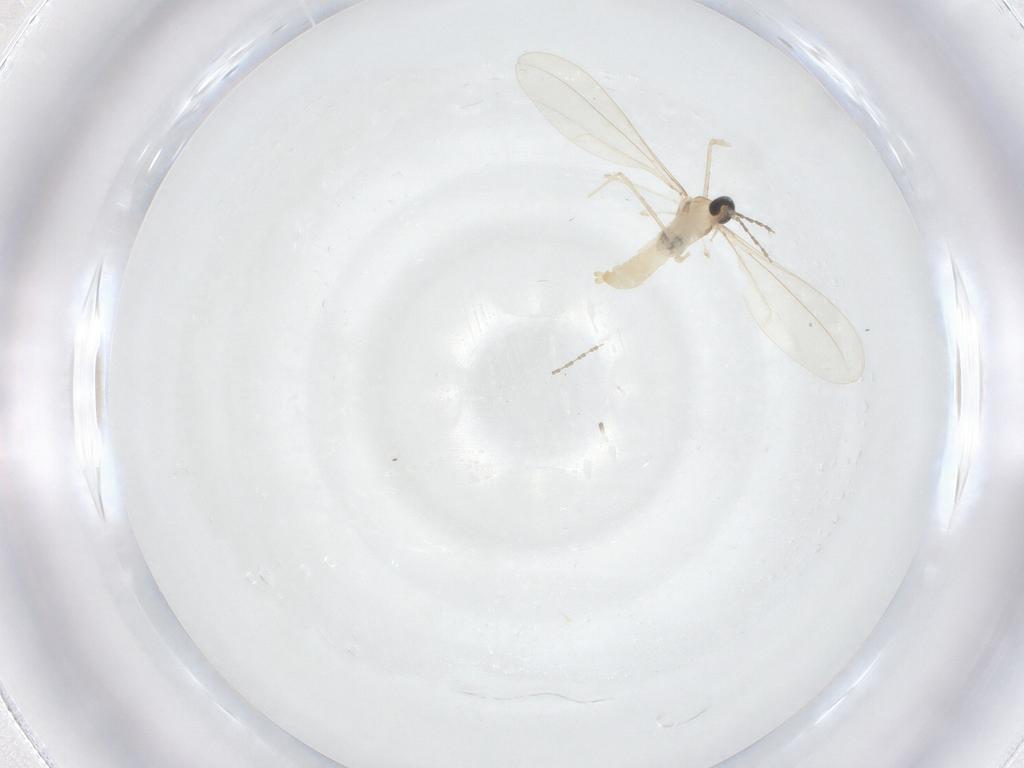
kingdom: Animalia
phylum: Arthropoda
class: Insecta
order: Diptera
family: Cecidomyiidae
